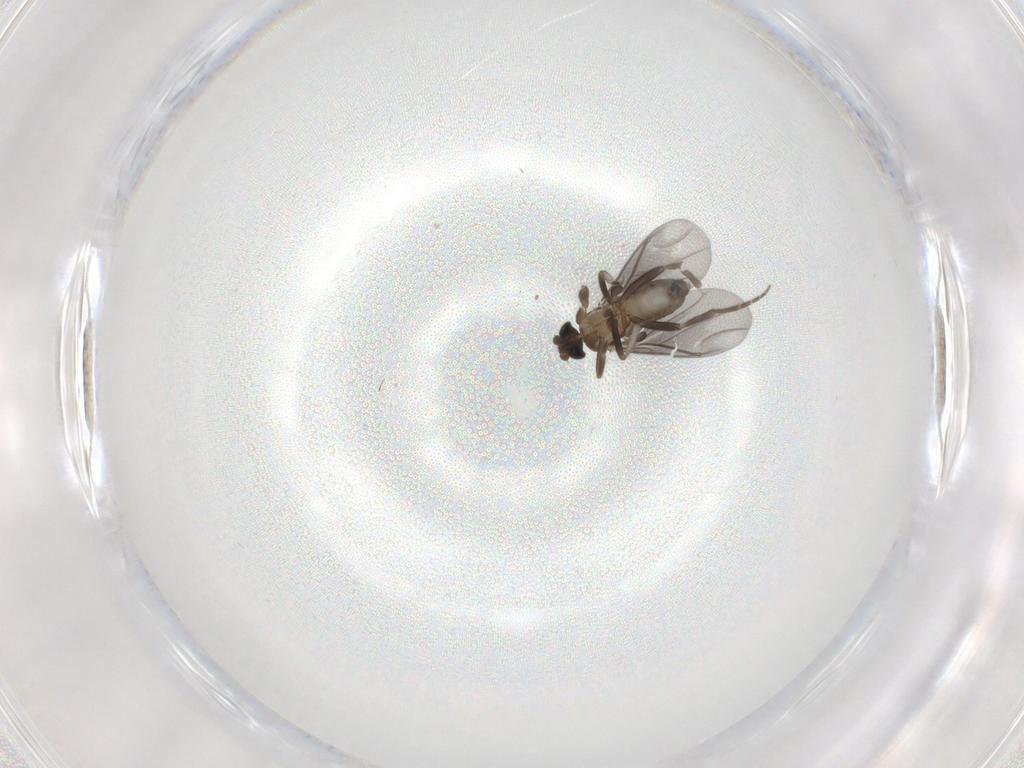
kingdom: Animalia
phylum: Arthropoda
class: Insecta
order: Diptera
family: Phoridae
